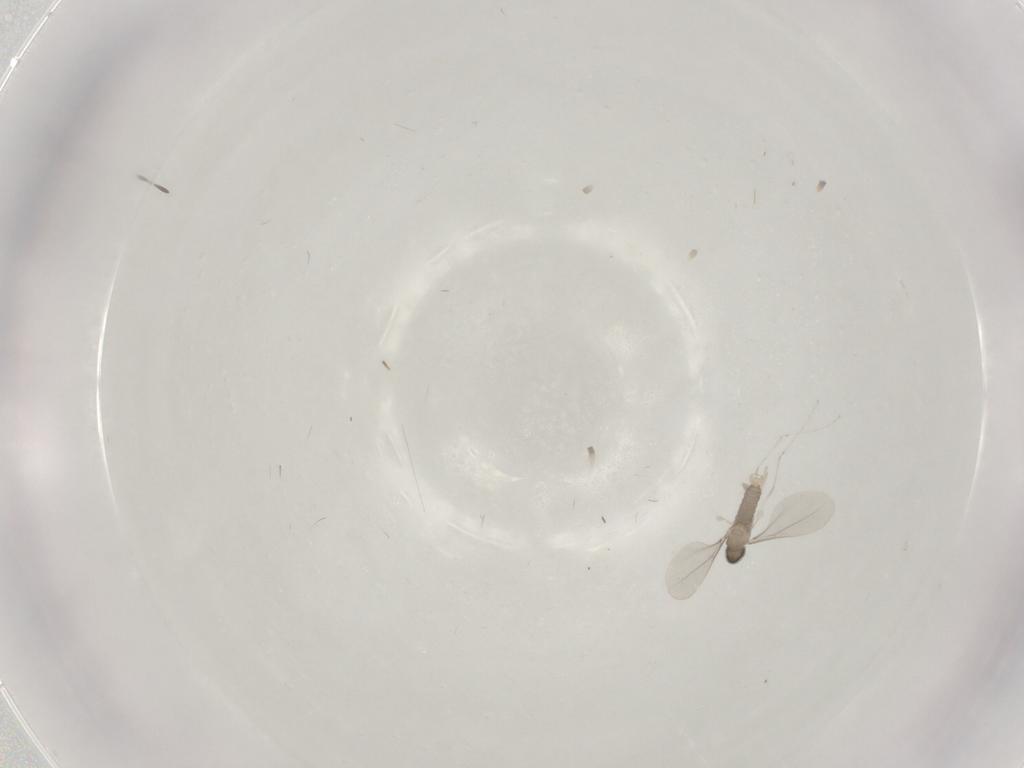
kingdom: Animalia
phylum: Arthropoda
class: Insecta
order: Diptera
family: Cecidomyiidae
